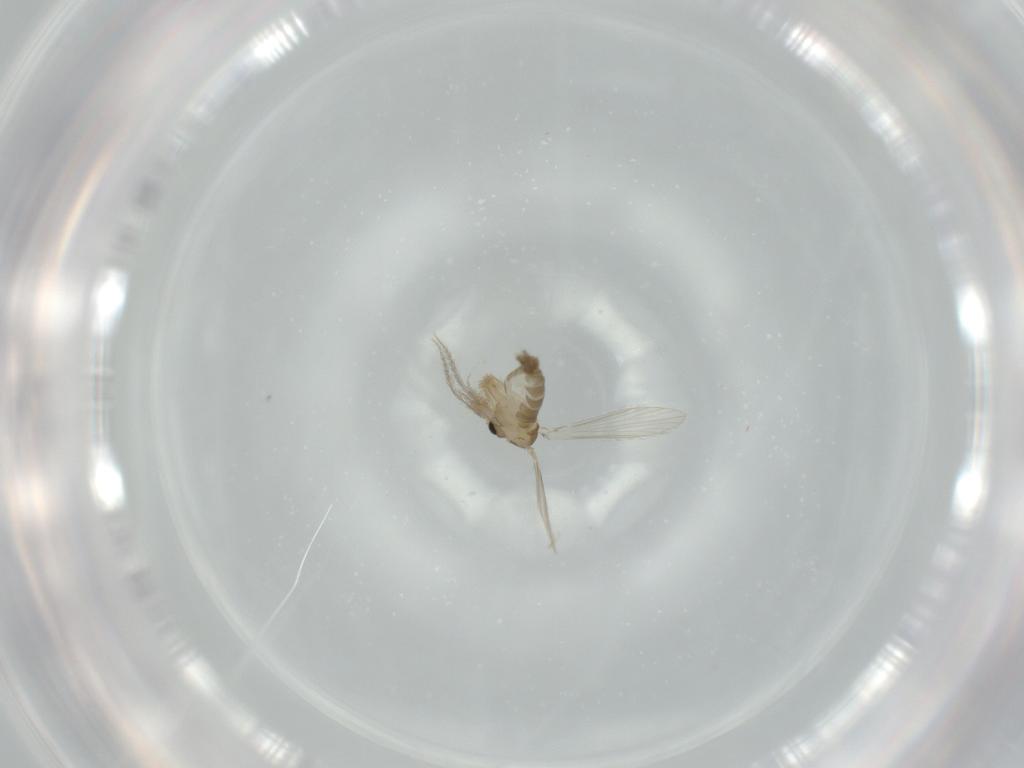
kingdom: Animalia
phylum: Arthropoda
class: Insecta
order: Diptera
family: Psychodidae
